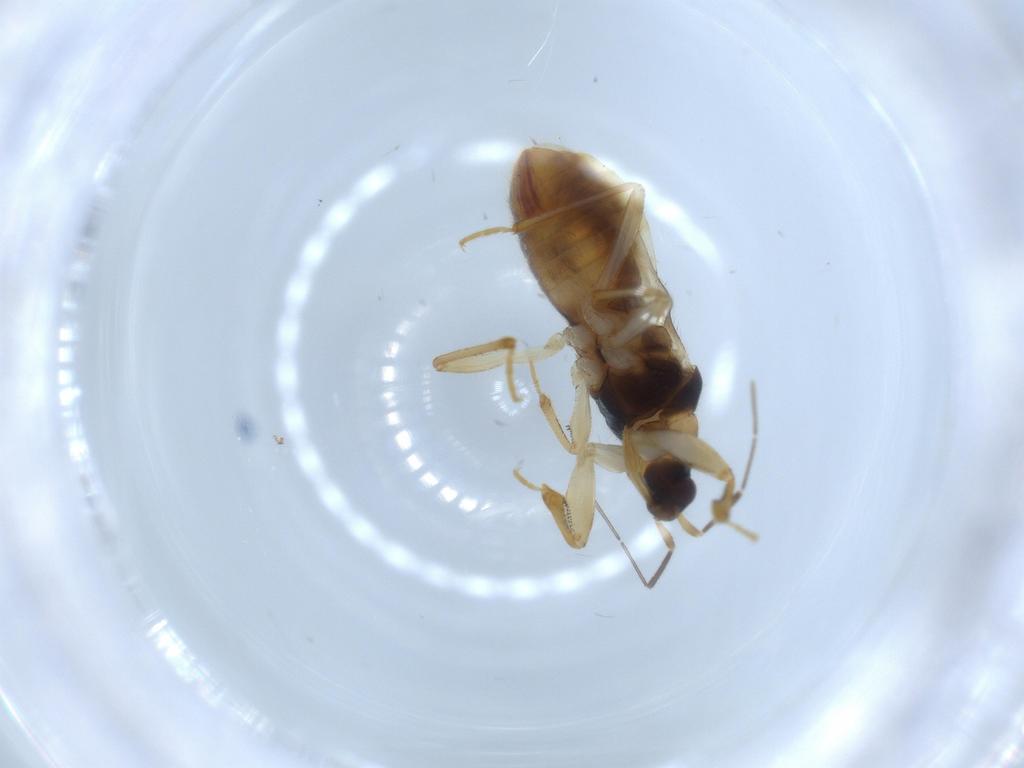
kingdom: Animalia
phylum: Arthropoda
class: Insecta
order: Hemiptera
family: Nabidae
